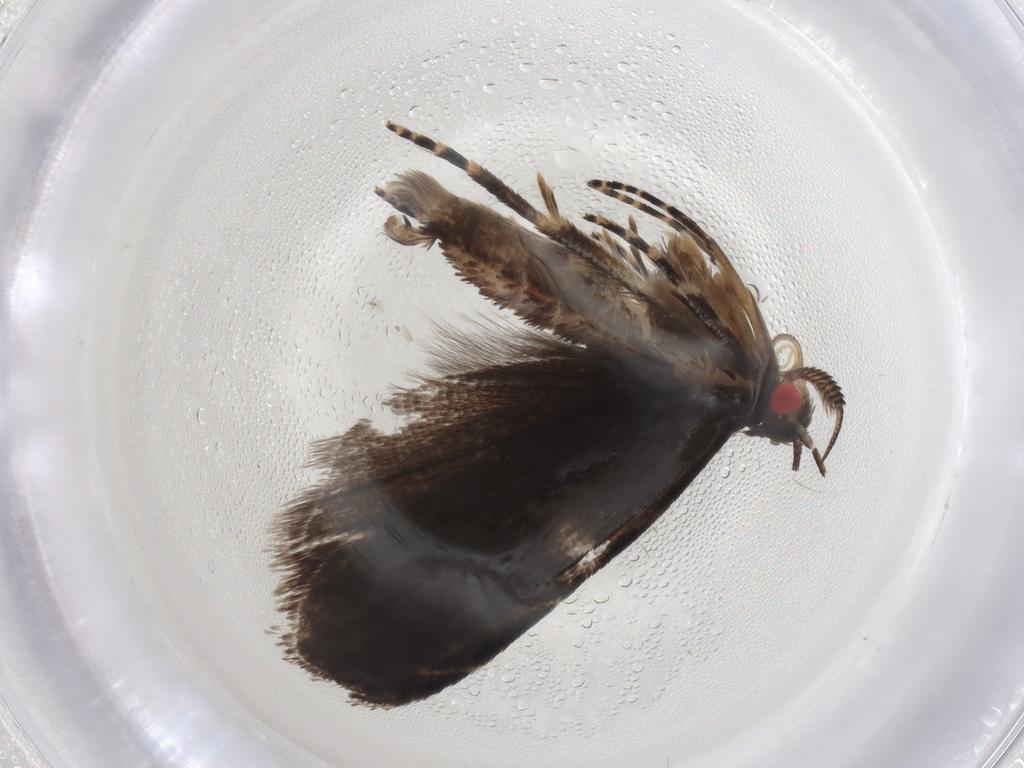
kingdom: Animalia
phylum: Arthropoda
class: Insecta
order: Lepidoptera
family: Gelechiidae
